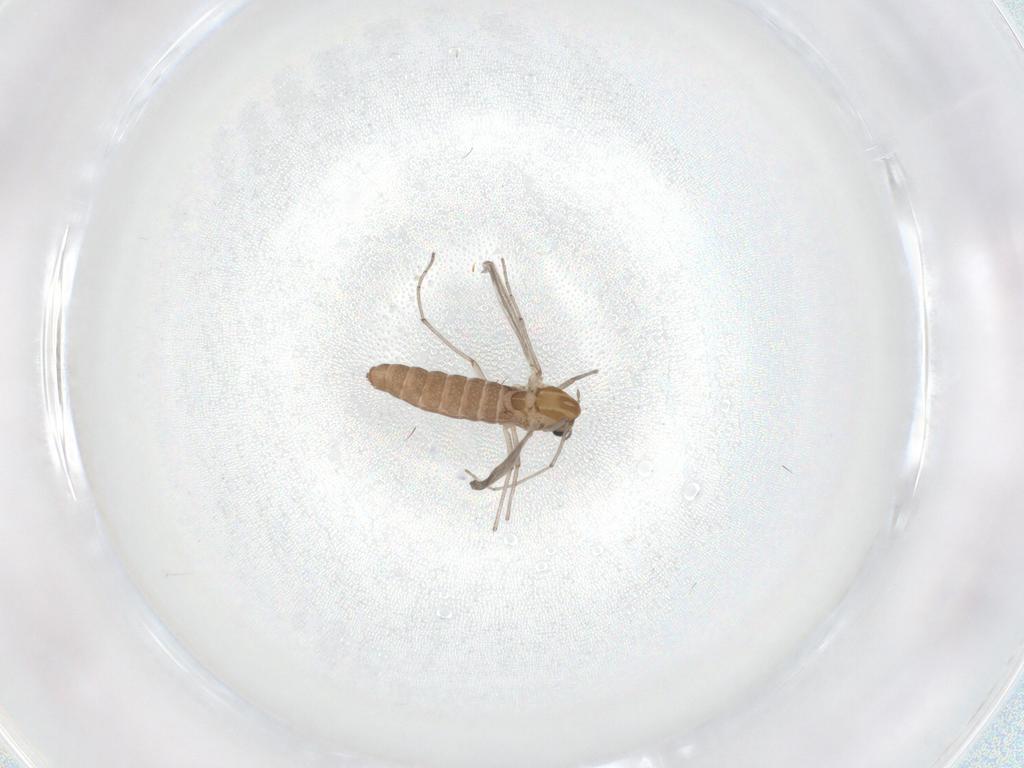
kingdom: Animalia
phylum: Arthropoda
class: Insecta
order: Diptera
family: Chironomidae
